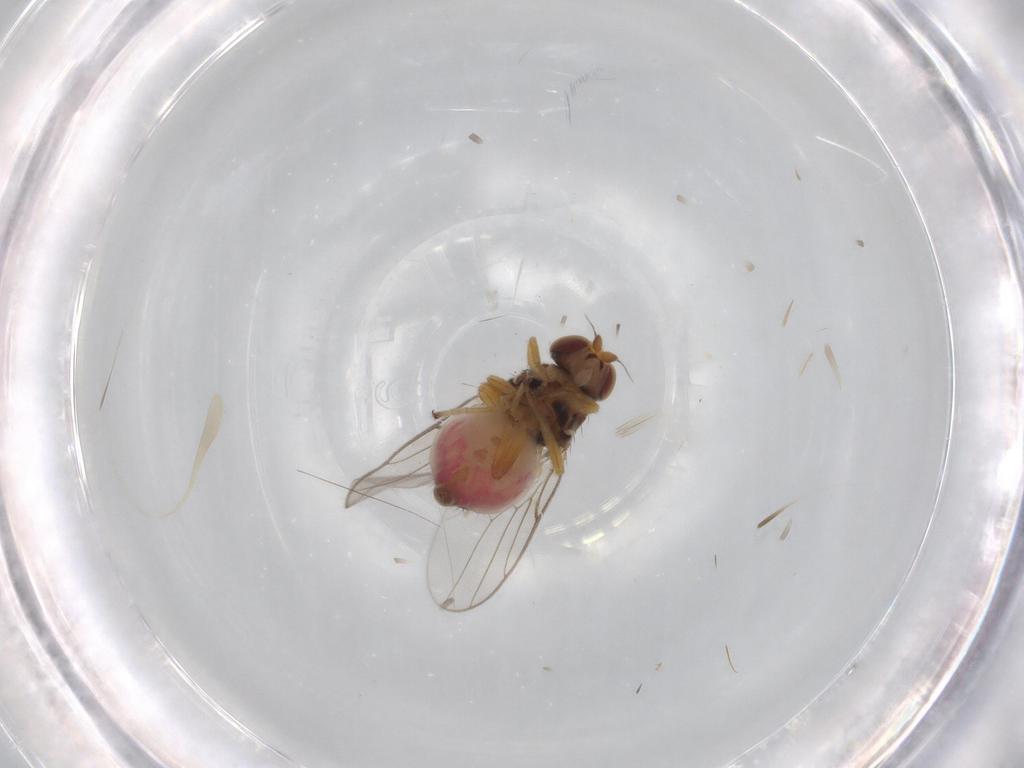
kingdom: Animalia
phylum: Arthropoda
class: Insecta
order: Diptera
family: Chloropidae
